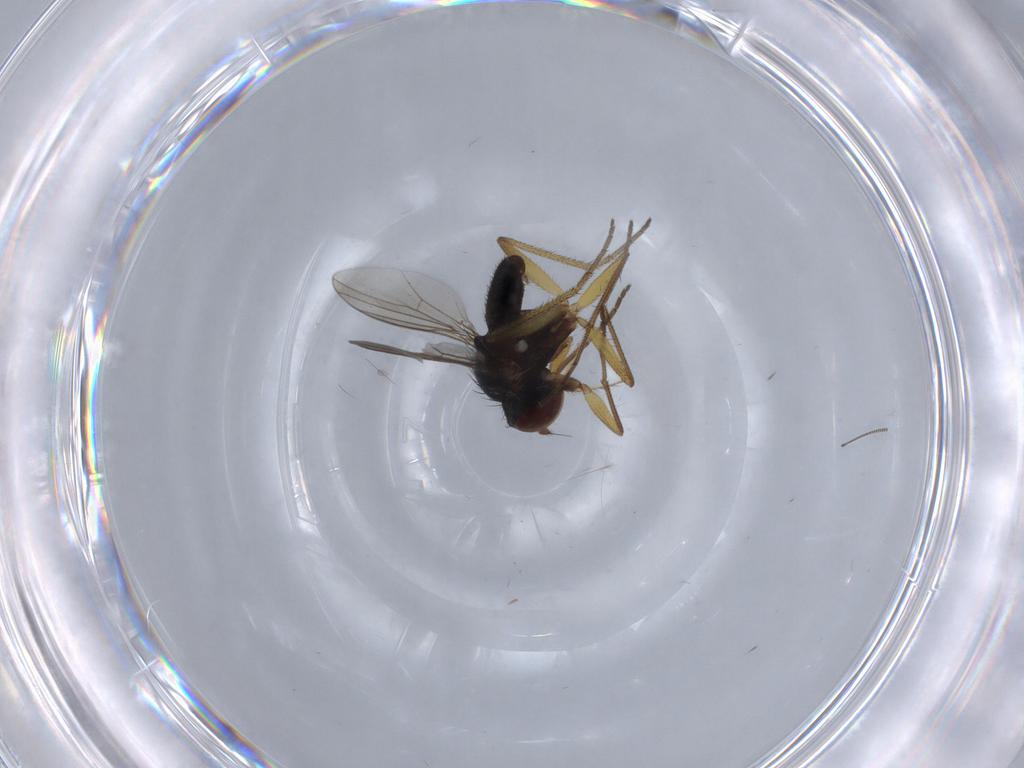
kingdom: Animalia
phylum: Arthropoda
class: Insecta
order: Diptera
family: Dolichopodidae
